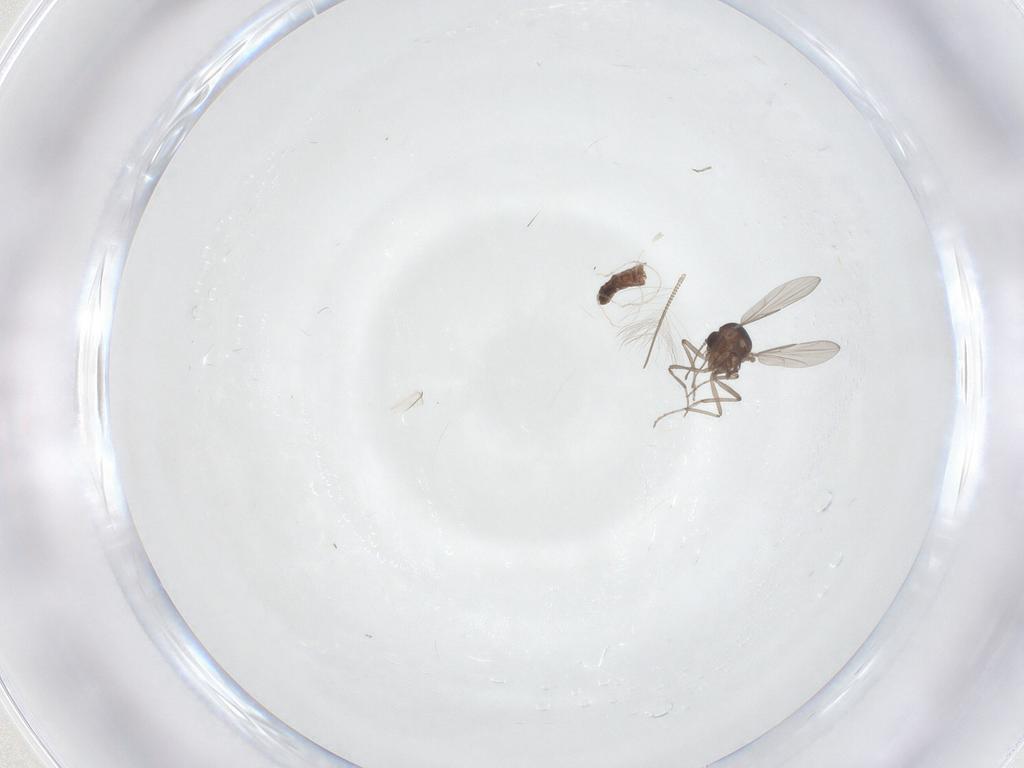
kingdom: Animalia
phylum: Arthropoda
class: Insecta
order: Diptera
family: Chironomidae
